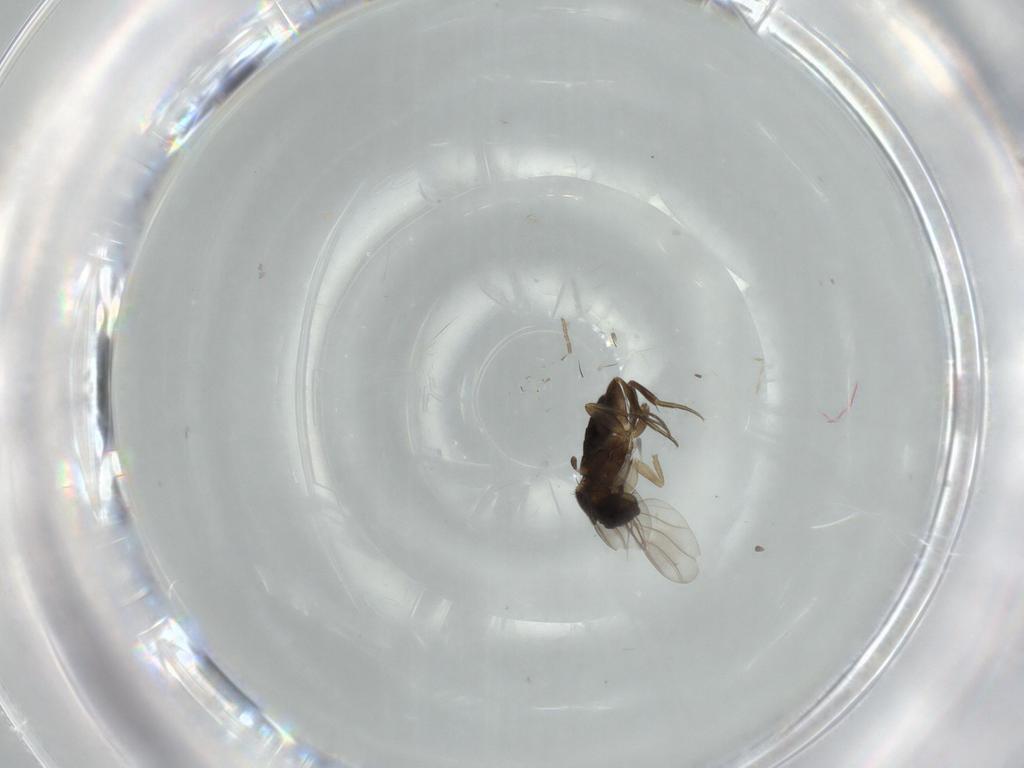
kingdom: Animalia
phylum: Arthropoda
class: Insecta
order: Diptera
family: Phoridae
